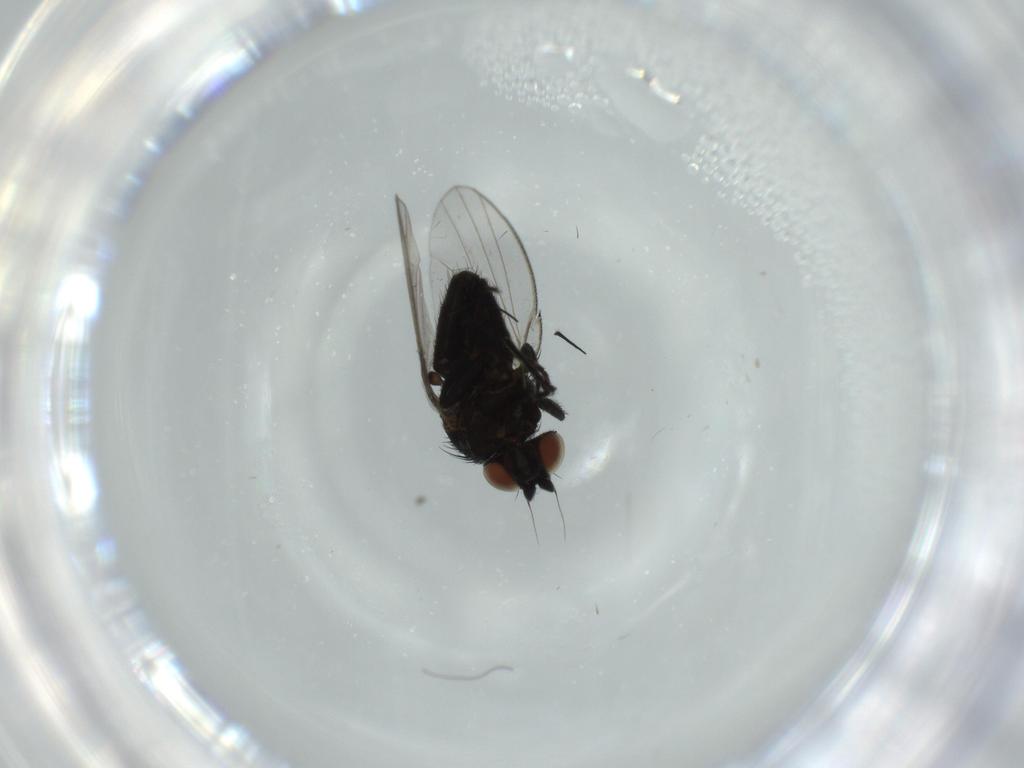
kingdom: Animalia
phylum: Arthropoda
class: Insecta
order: Diptera
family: Milichiidae
